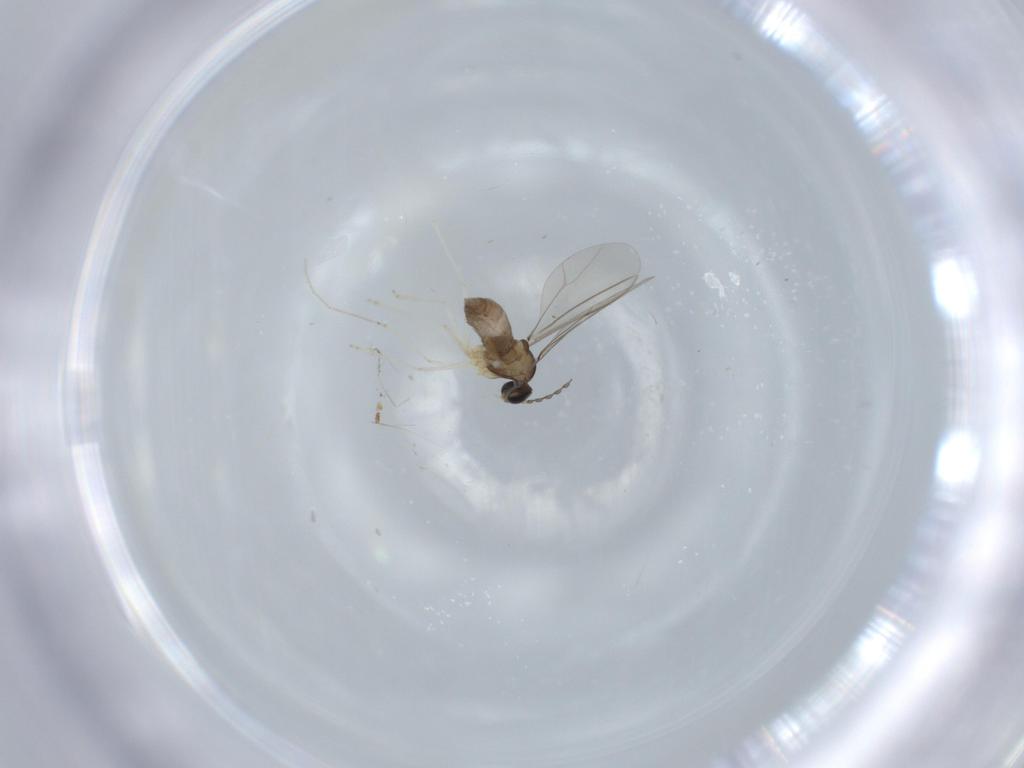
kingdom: Animalia
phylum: Arthropoda
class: Insecta
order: Diptera
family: Cecidomyiidae
